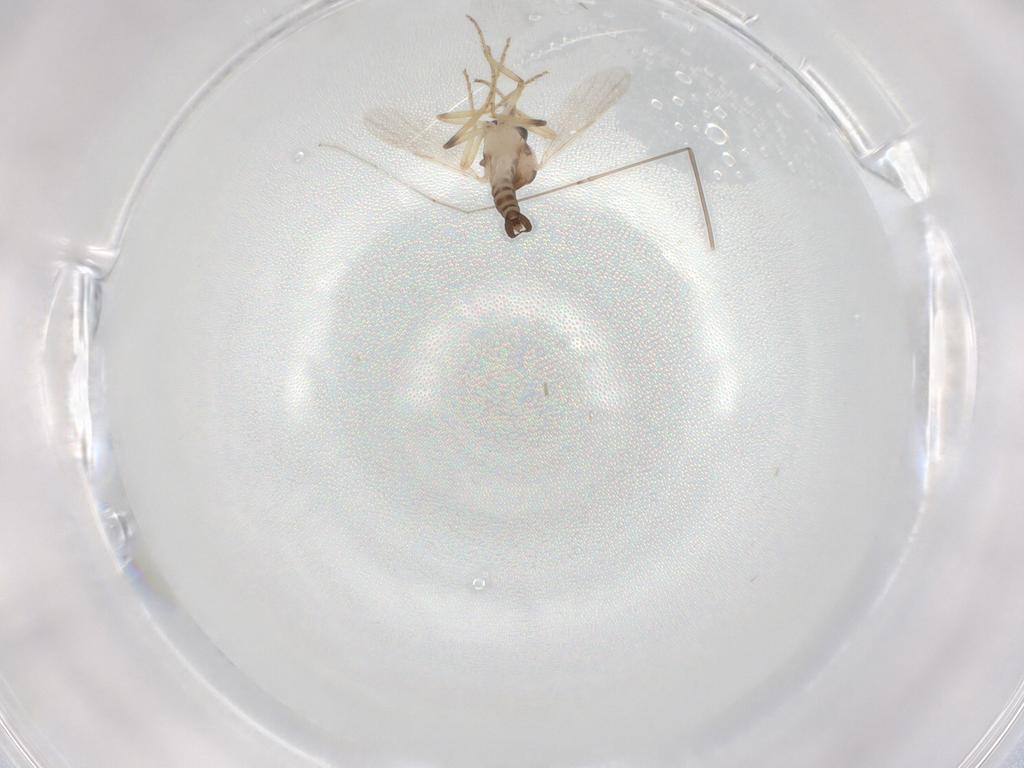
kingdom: Animalia
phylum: Arthropoda
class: Insecta
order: Diptera
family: Ceratopogonidae
